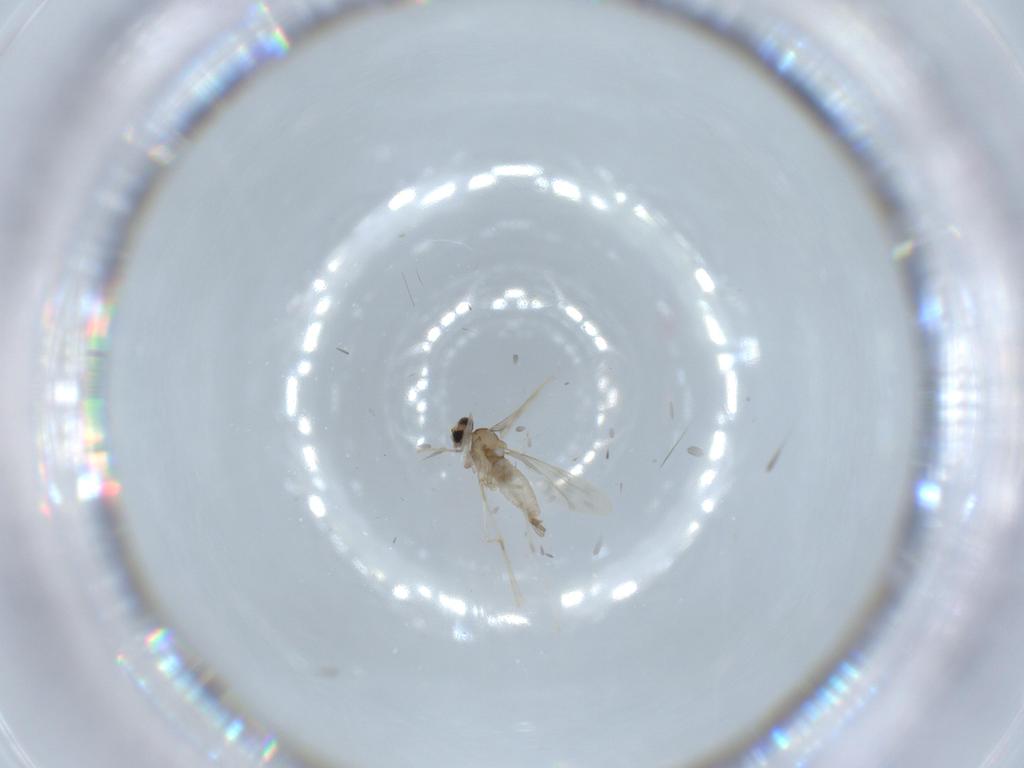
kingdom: Animalia
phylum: Arthropoda
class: Insecta
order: Diptera
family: Cecidomyiidae
